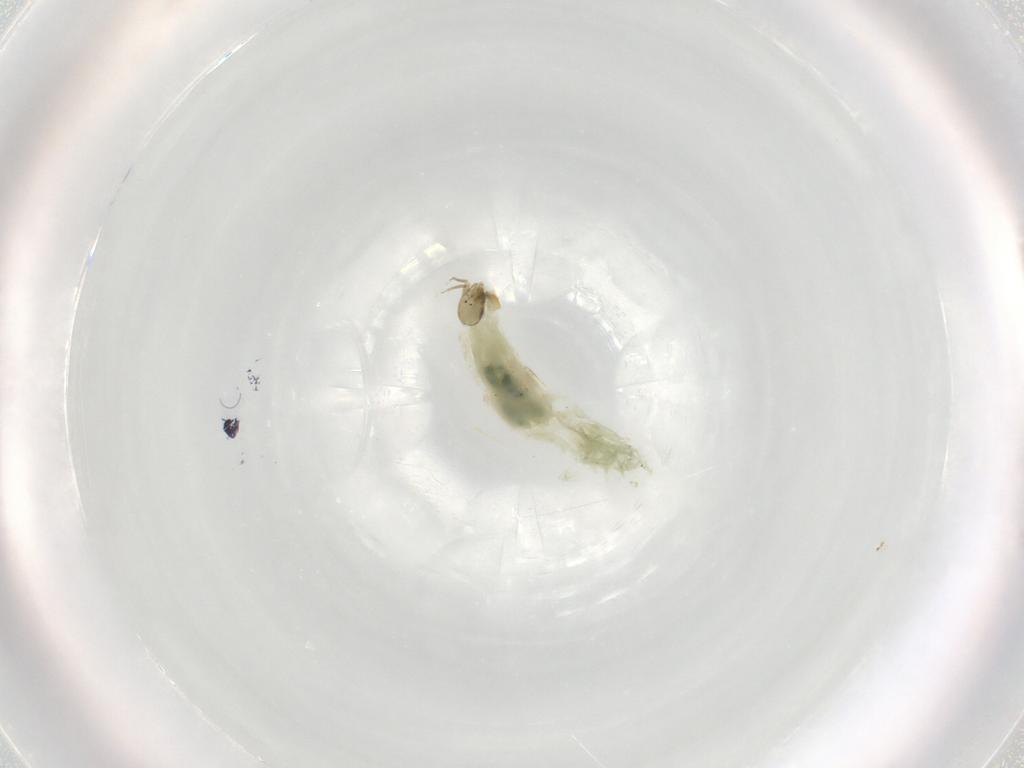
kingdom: Animalia
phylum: Arthropoda
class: Insecta
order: Diptera
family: Chironomidae
